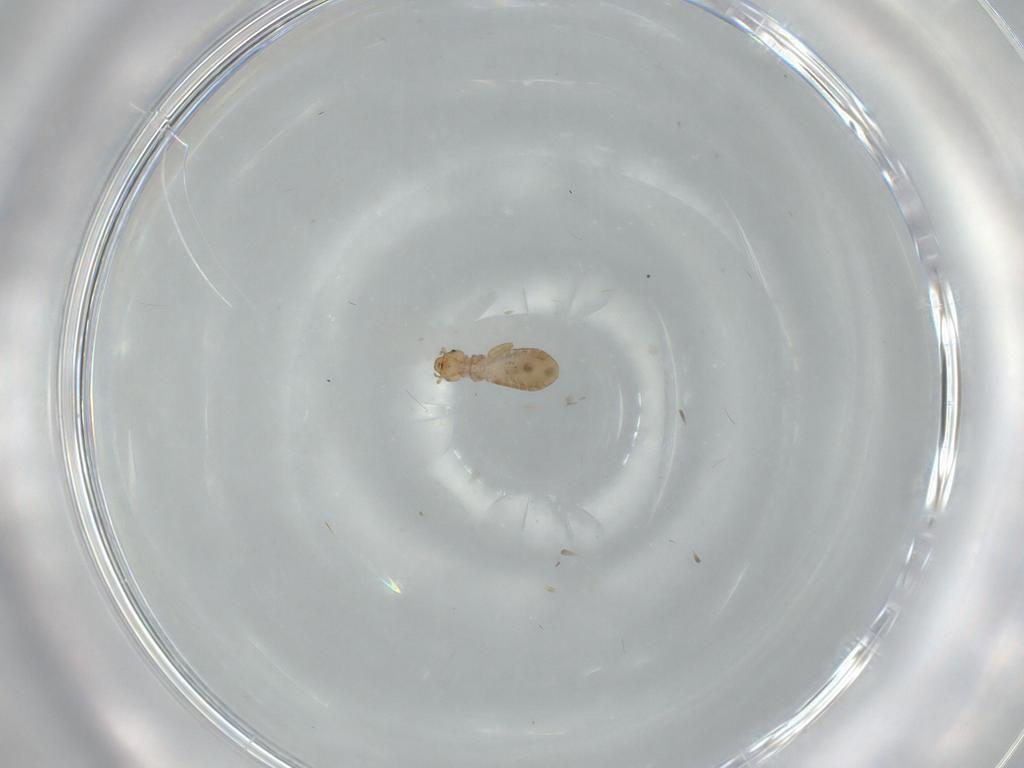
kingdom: Animalia
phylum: Arthropoda
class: Insecta
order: Psocodea
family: Liposcelididae
